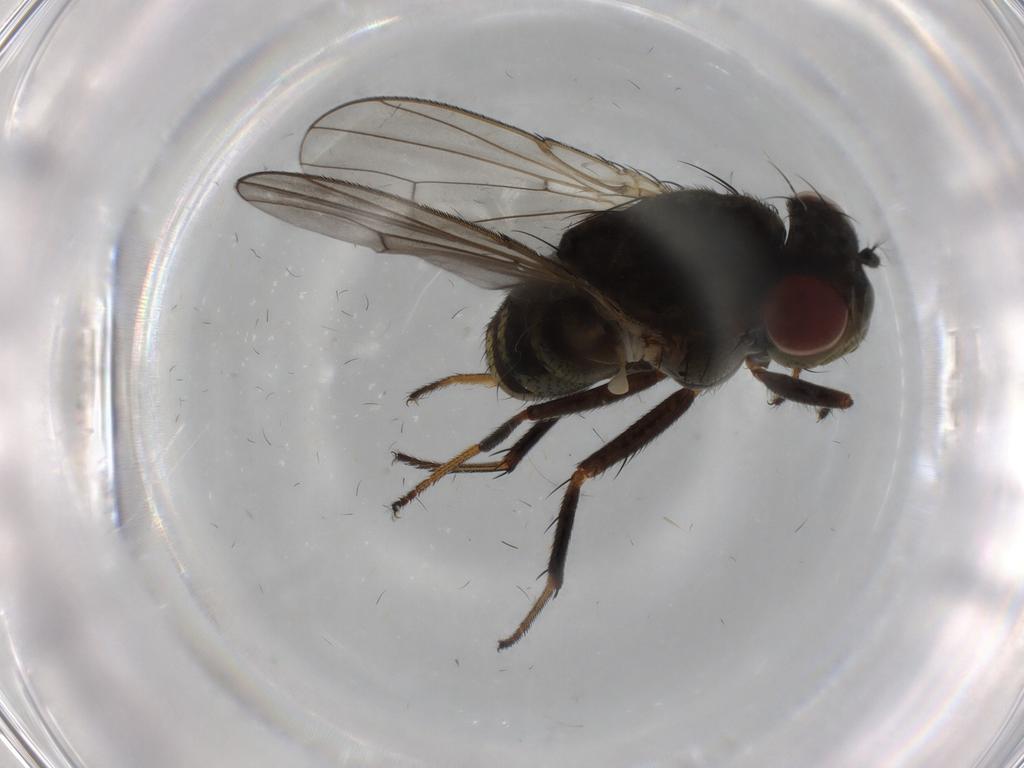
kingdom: Animalia
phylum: Arthropoda
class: Insecta
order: Diptera
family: Ephydridae
